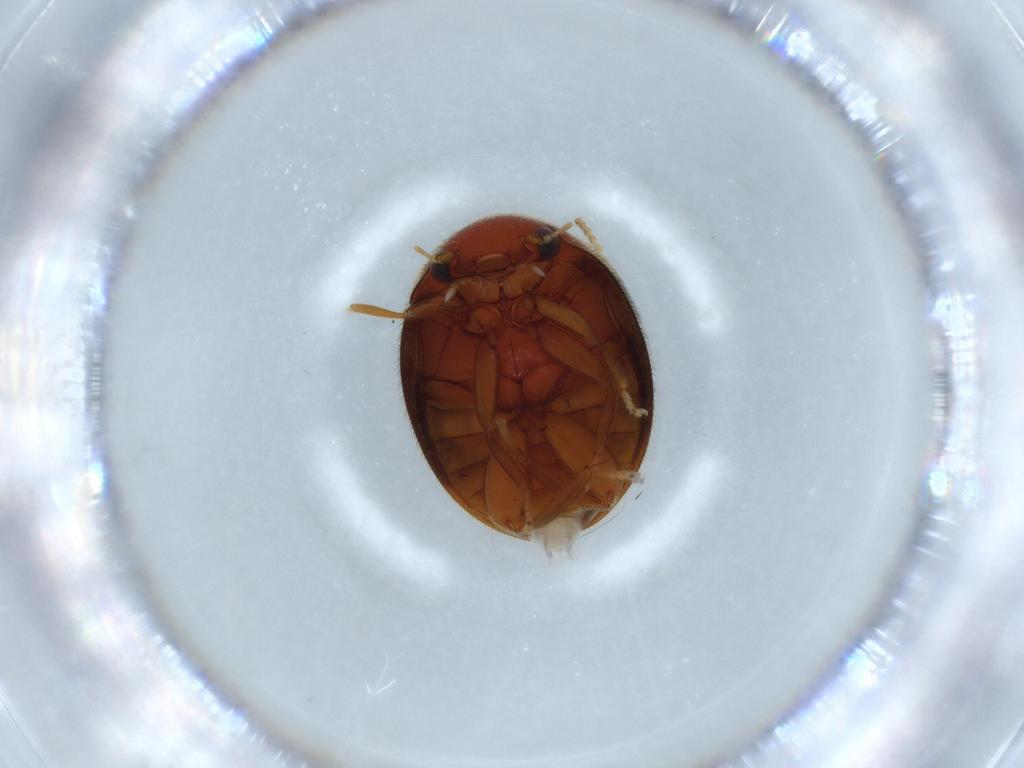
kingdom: Animalia
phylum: Arthropoda
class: Insecta
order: Coleoptera
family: Scirtidae
